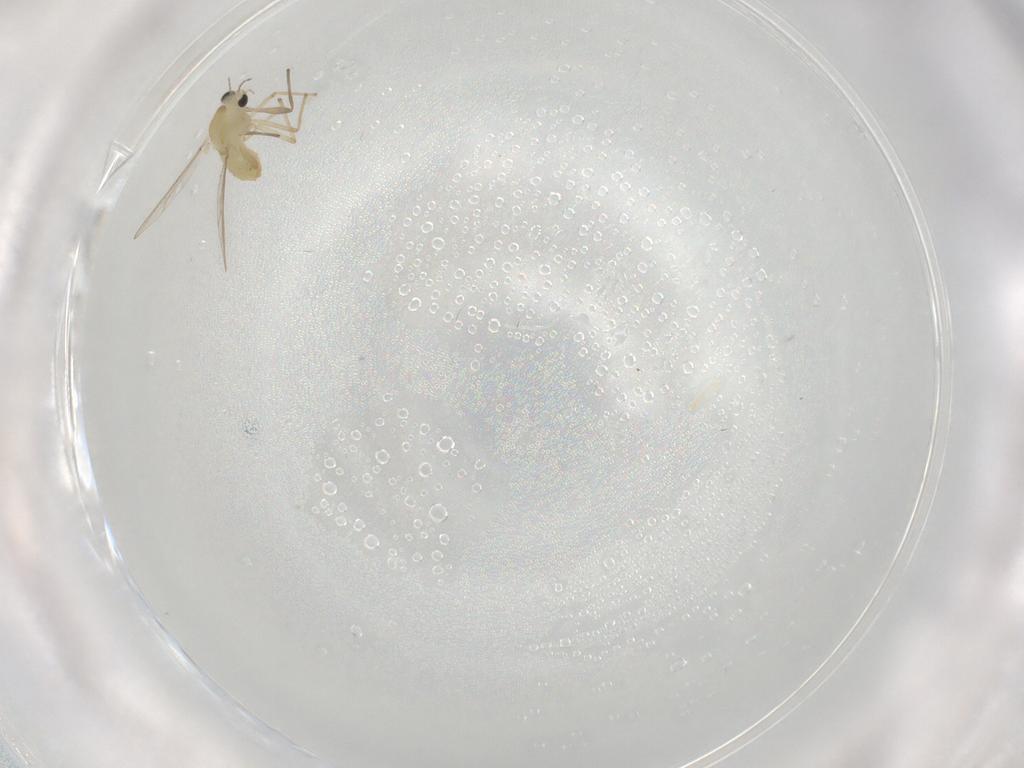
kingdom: Animalia
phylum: Arthropoda
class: Insecta
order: Diptera
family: Chironomidae
